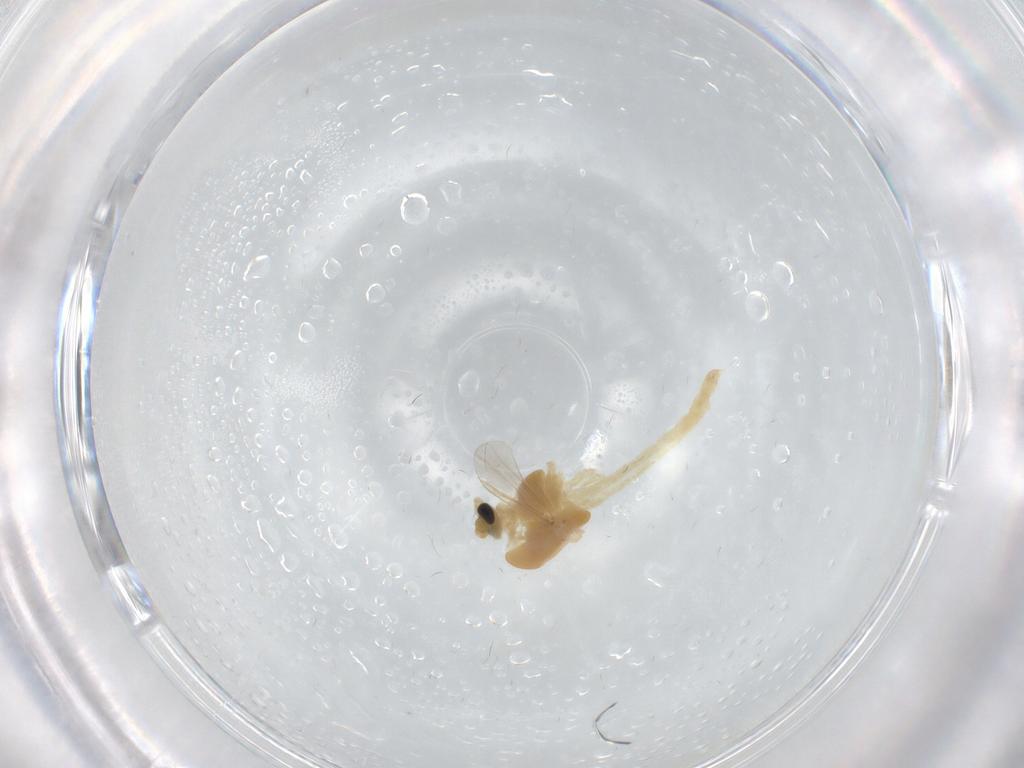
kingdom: Animalia
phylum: Arthropoda
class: Insecta
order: Diptera
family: Chironomidae
